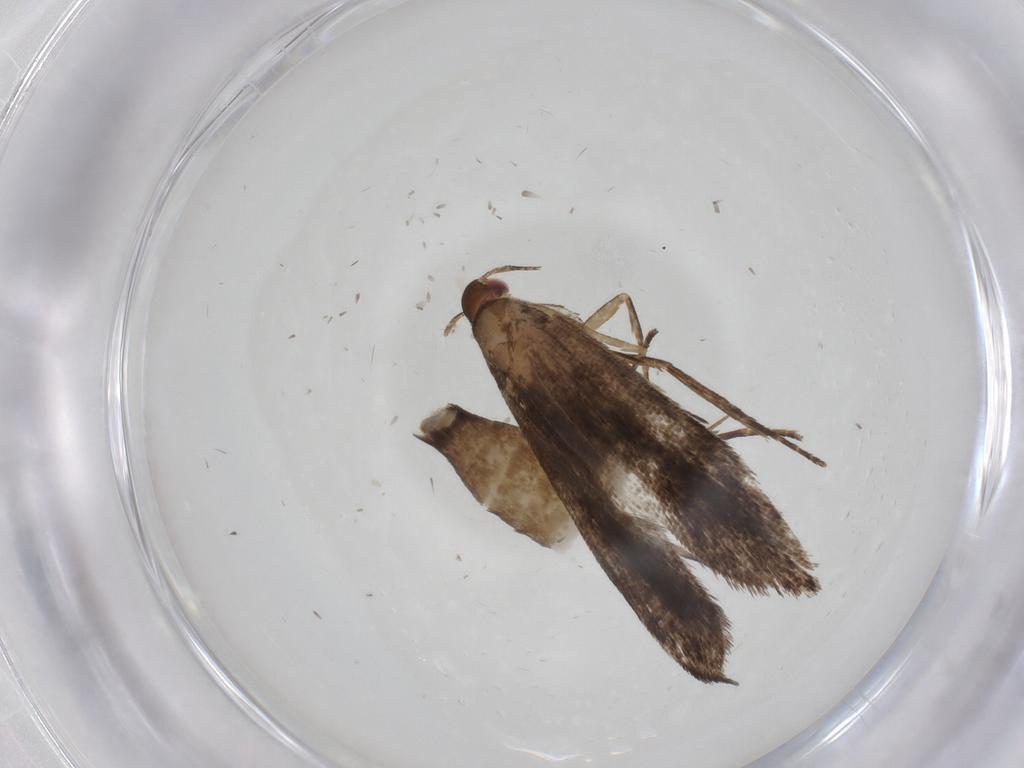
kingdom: Animalia
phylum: Arthropoda
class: Insecta
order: Lepidoptera
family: Gelechiidae
